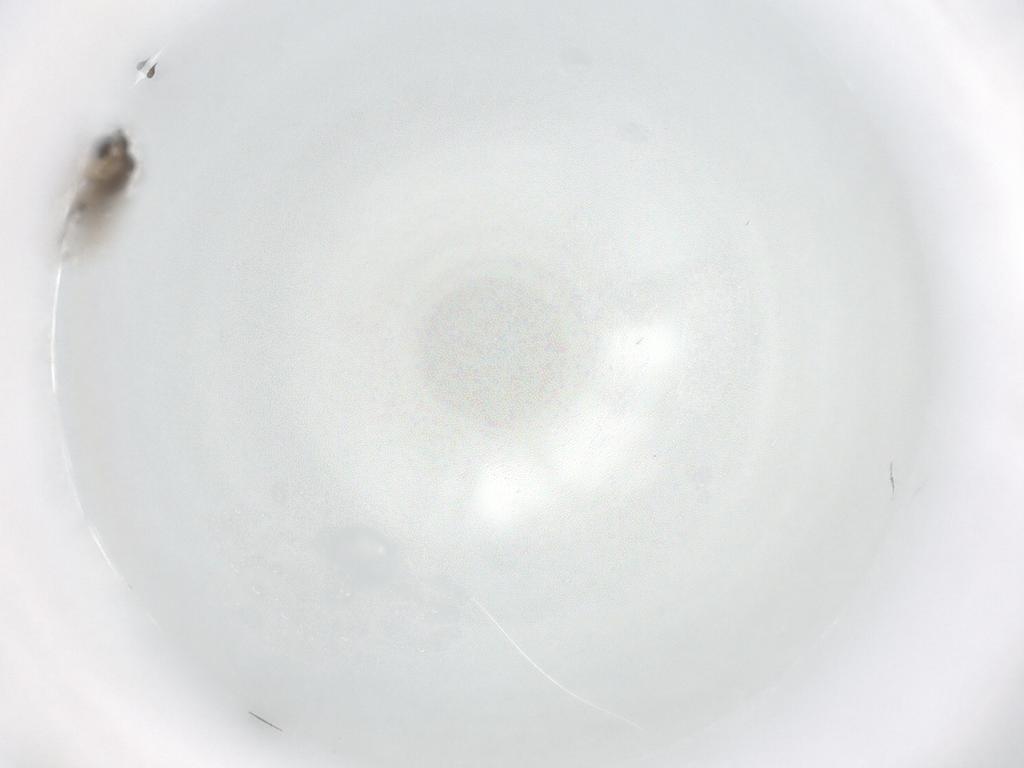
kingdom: Animalia
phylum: Arthropoda
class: Insecta
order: Diptera
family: Phoridae
